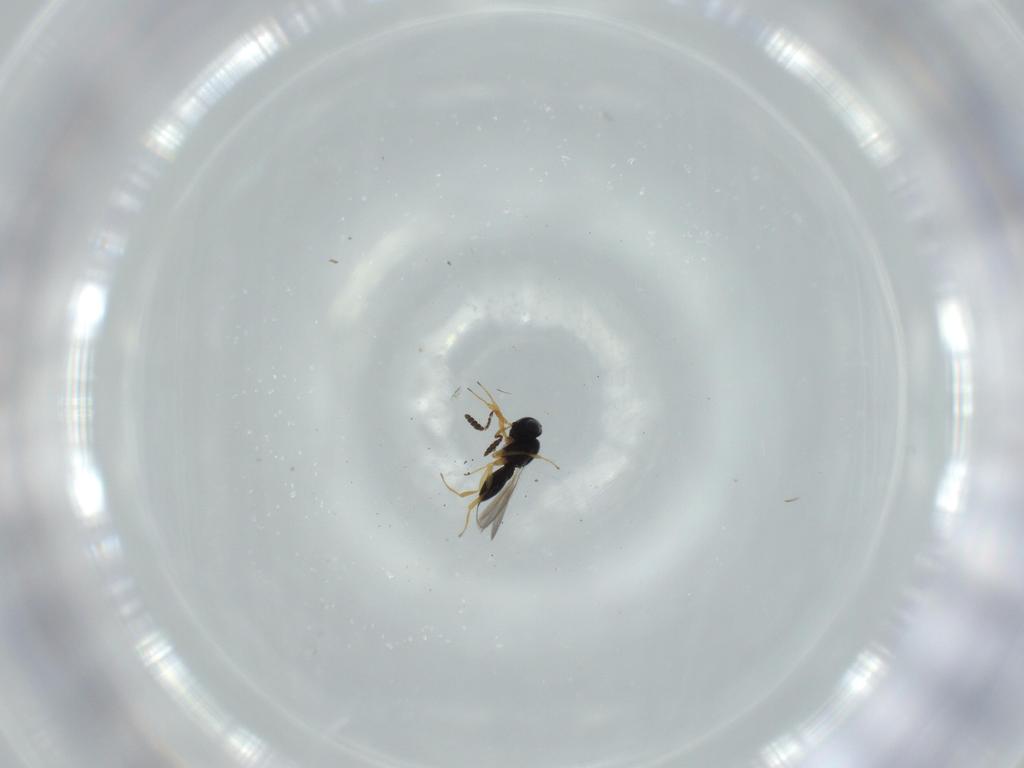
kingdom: Animalia
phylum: Arthropoda
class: Insecta
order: Hymenoptera
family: Scelionidae
